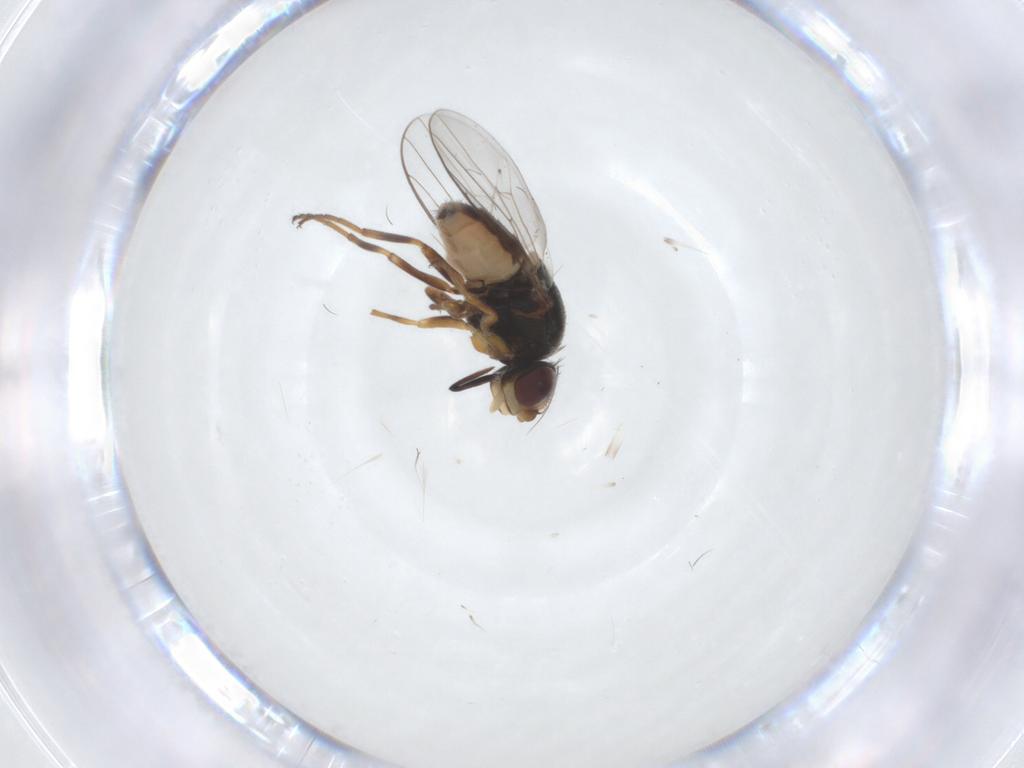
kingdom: Animalia
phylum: Arthropoda
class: Insecta
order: Diptera
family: Chloropidae
